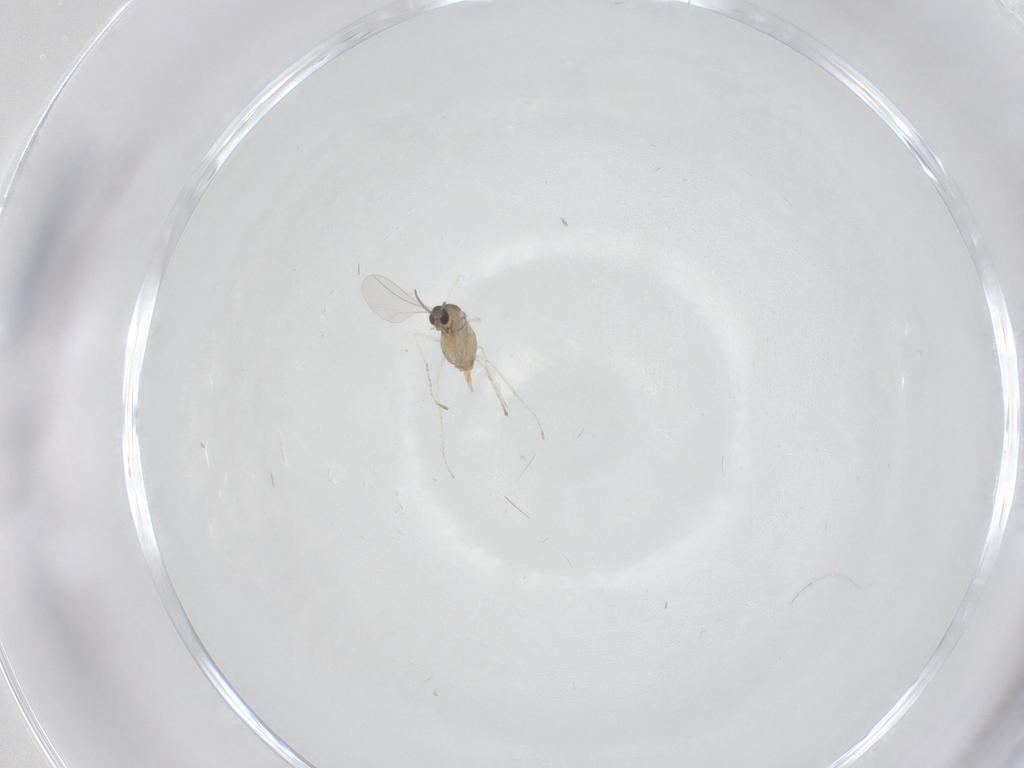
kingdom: Animalia
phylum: Arthropoda
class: Insecta
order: Diptera
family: Cecidomyiidae
